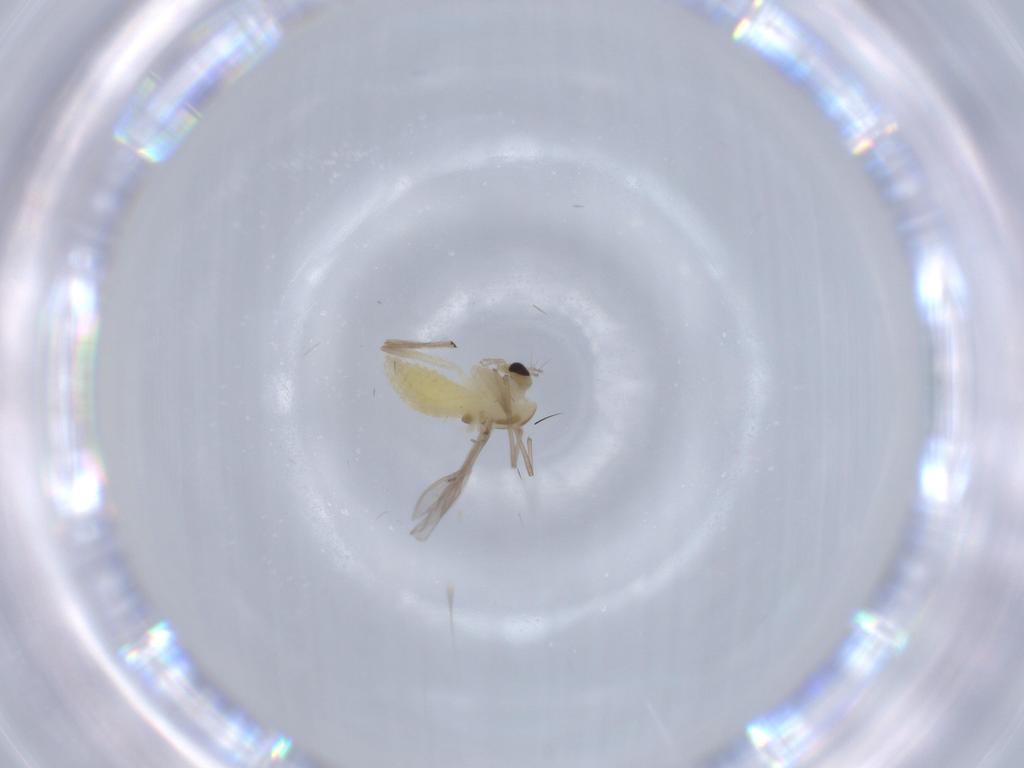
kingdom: Animalia
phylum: Arthropoda
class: Insecta
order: Diptera
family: Chironomidae
